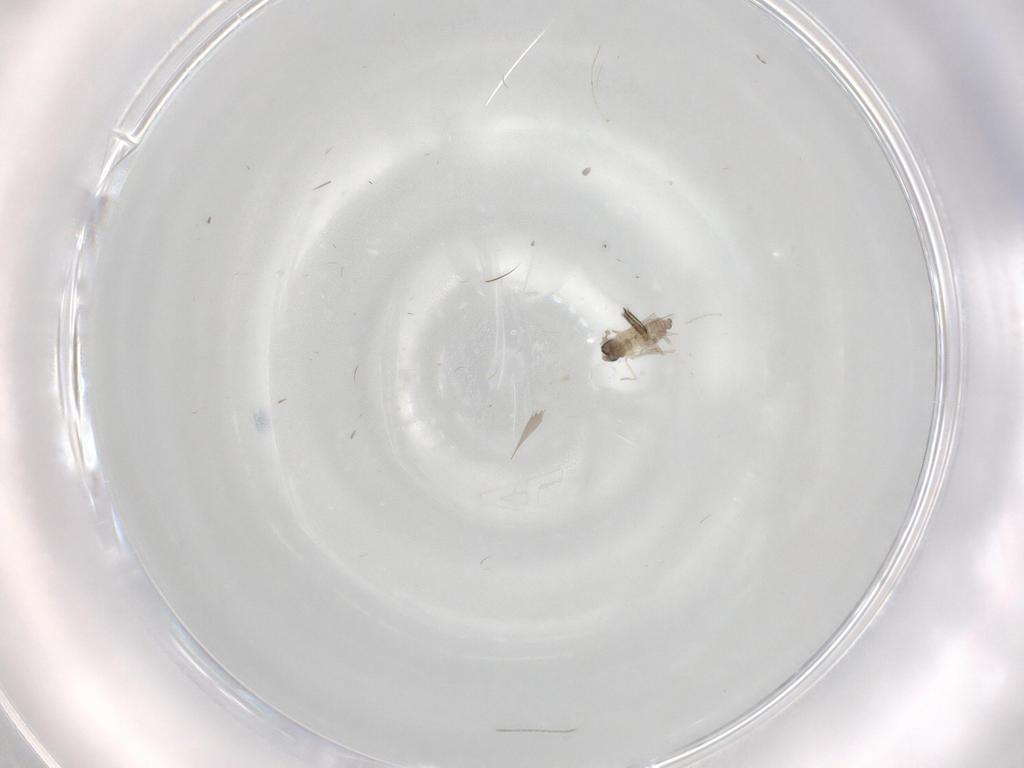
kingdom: Animalia
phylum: Arthropoda
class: Insecta
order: Diptera
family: Cecidomyiidae
